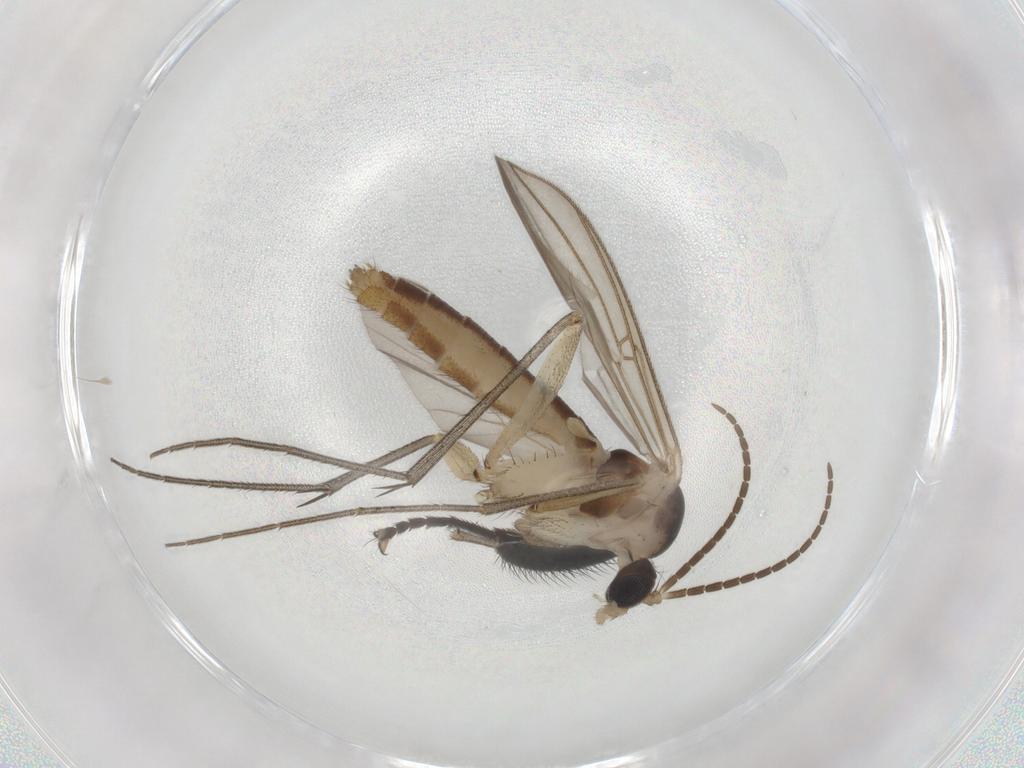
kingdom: Animalia
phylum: Arthropoda
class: Insecta
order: Diptera
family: Mycetophilidae
